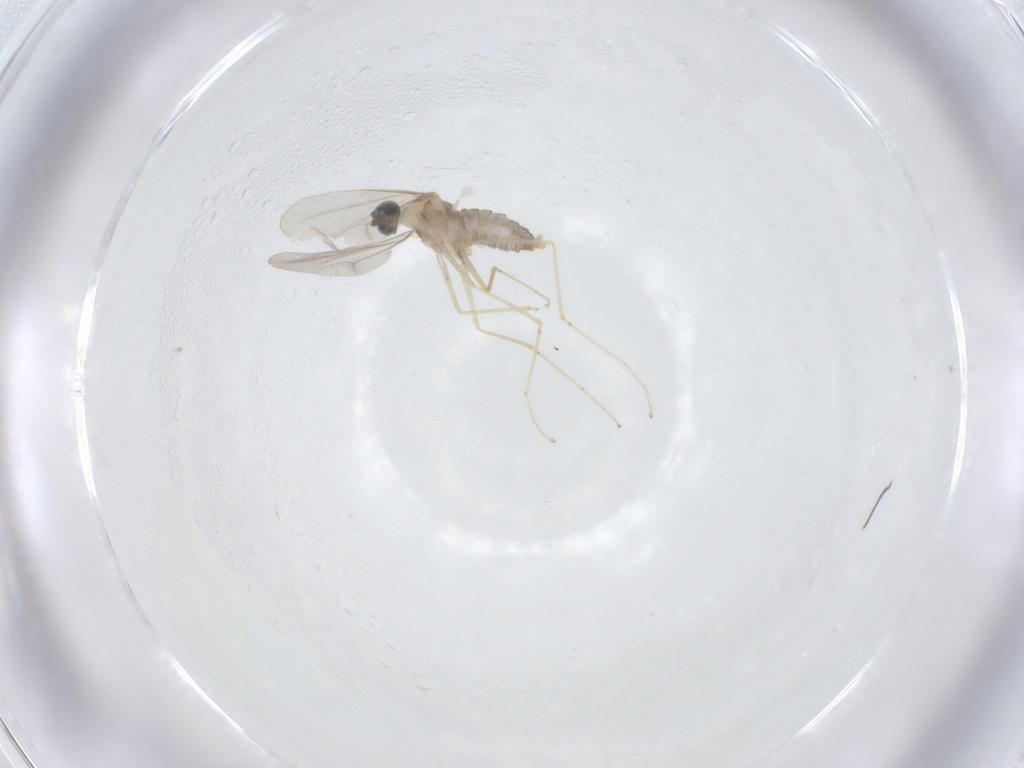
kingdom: Animalia
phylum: Arthropoda
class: Insecta
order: Diptera
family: Cecidomyiidae
